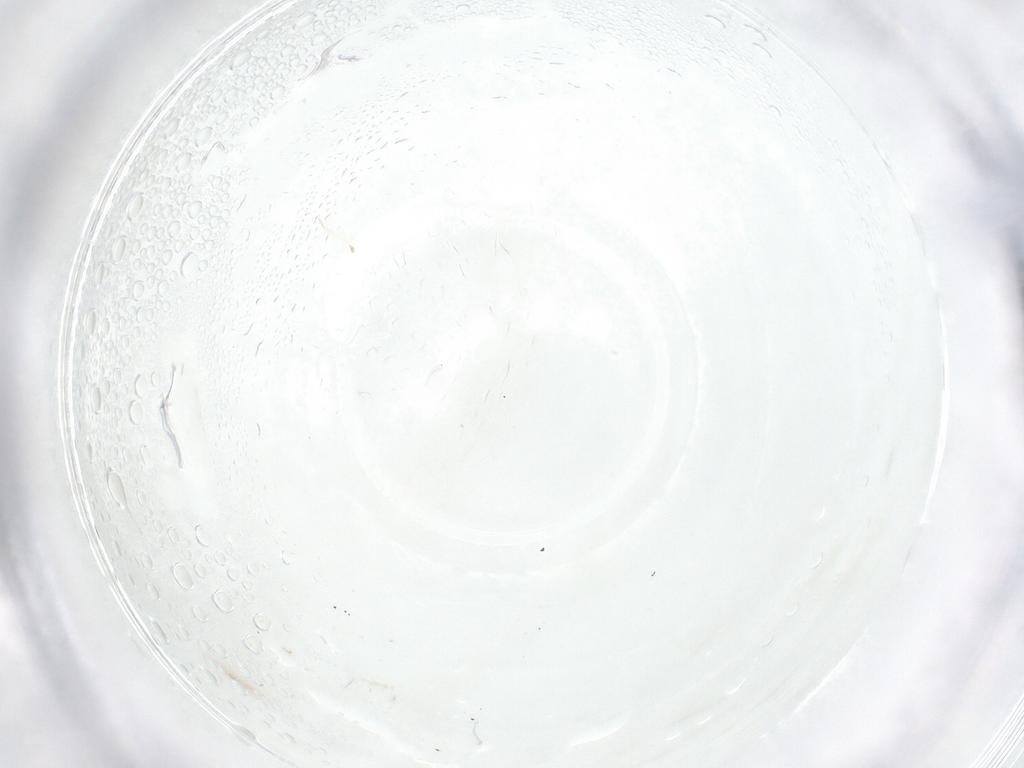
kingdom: Animalia
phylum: Arthropoda
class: Insecta
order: Diptera
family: Cecidomyiidae
